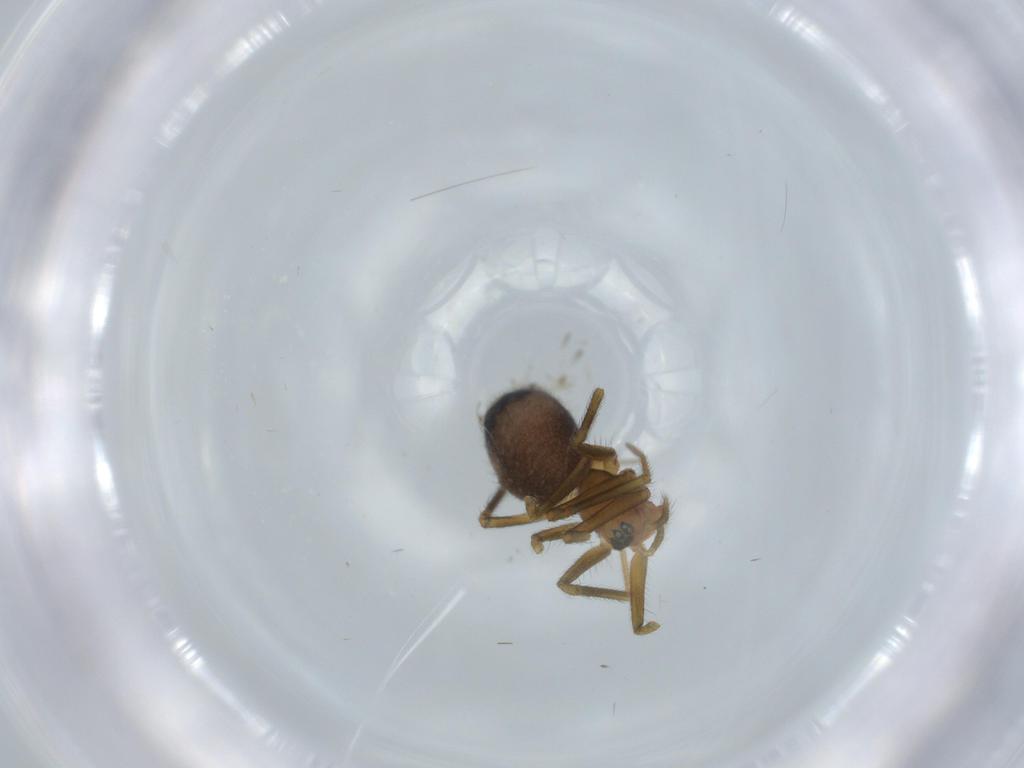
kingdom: Animalia
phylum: Arthropoda
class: Arachnida
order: Araneae
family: Linyphiidae
